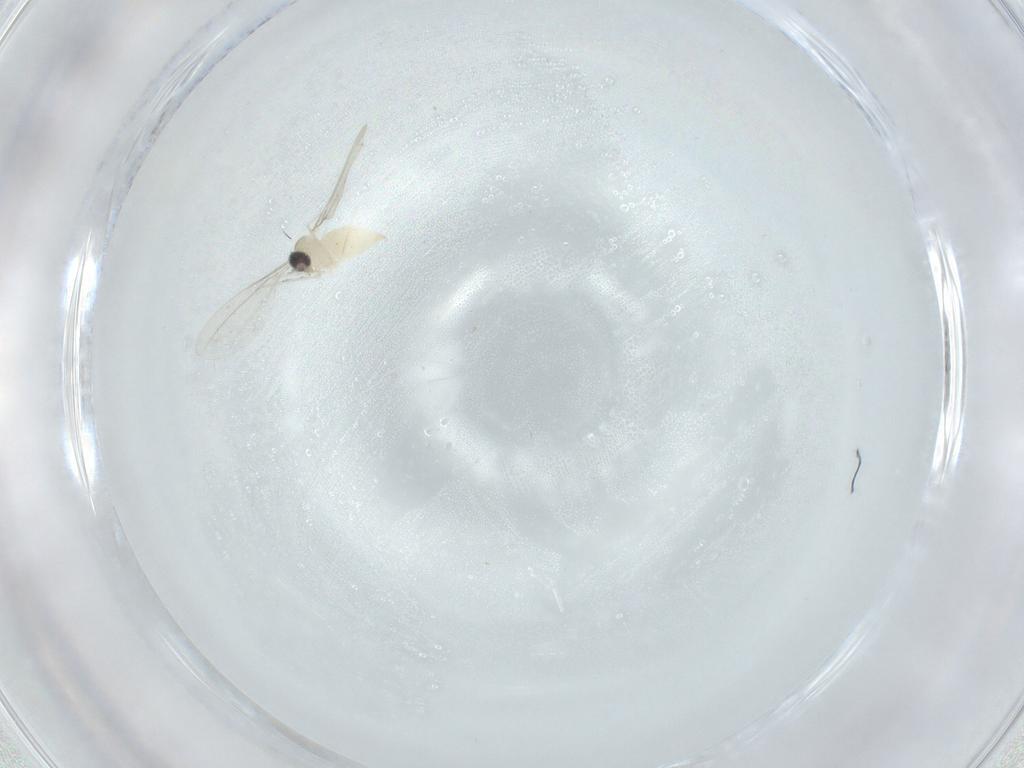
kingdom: Animalia
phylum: Arthropoda
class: Insecta
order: Diptera
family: Cecidomyiidae
